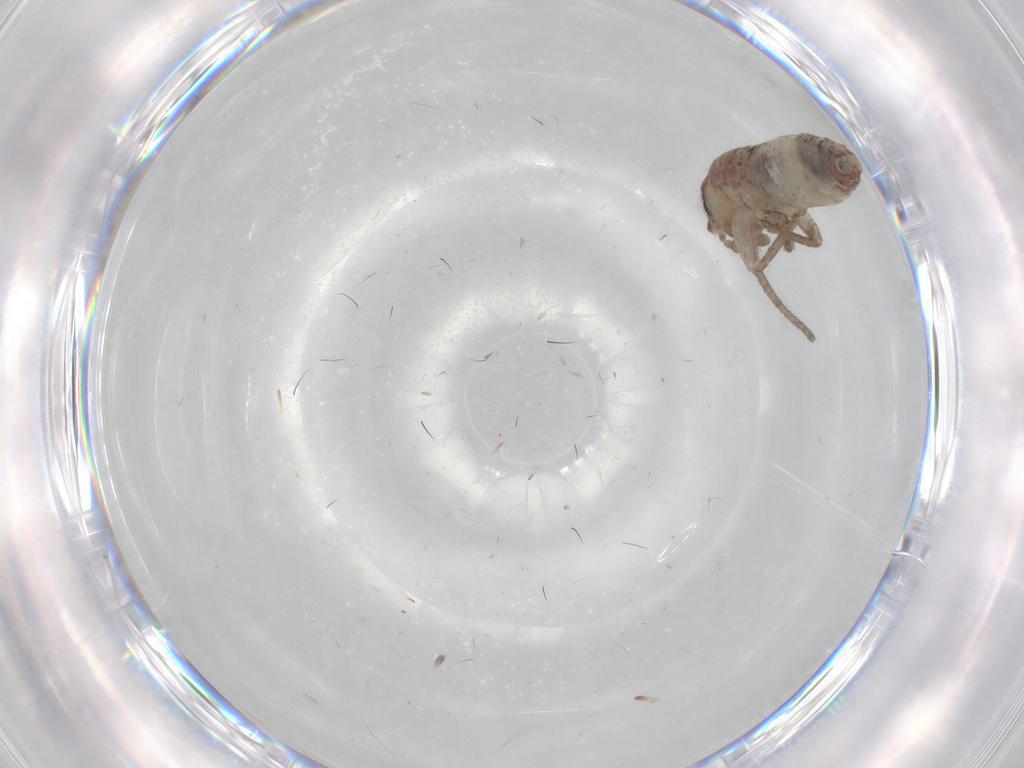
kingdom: Animalia
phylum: Arthropoda
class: Insecta
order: Orthoptera
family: Mogoplistidae
